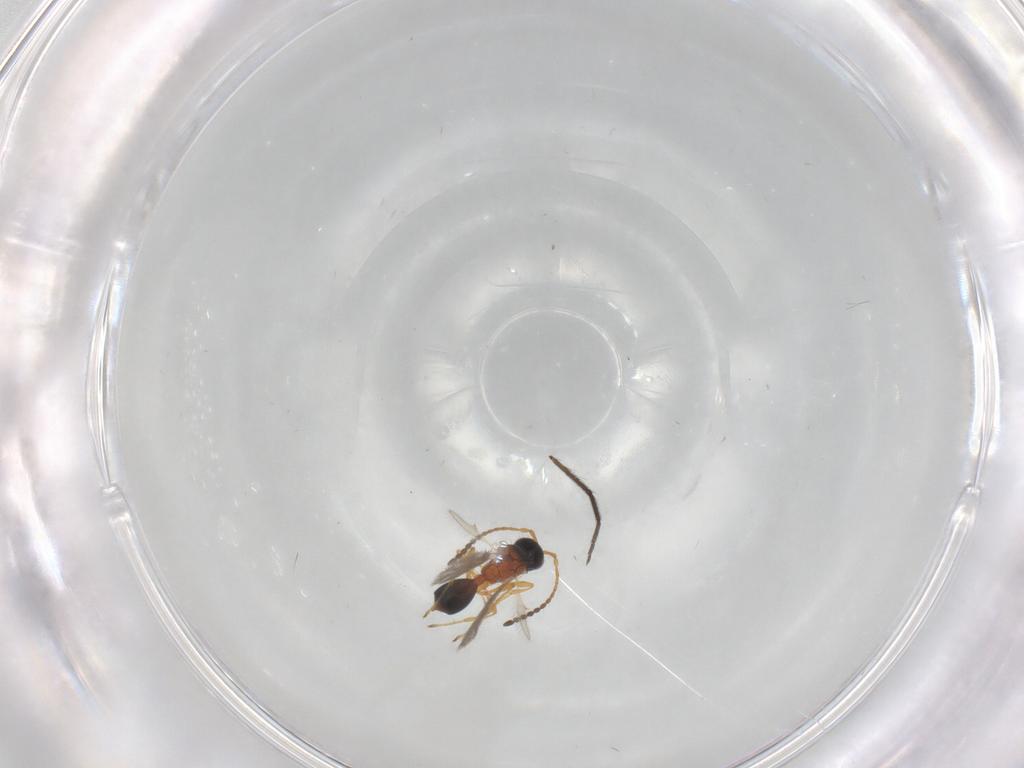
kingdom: Animalia
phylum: Arthropoda
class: Insecta
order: Hymenoptera
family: Diapriidae
